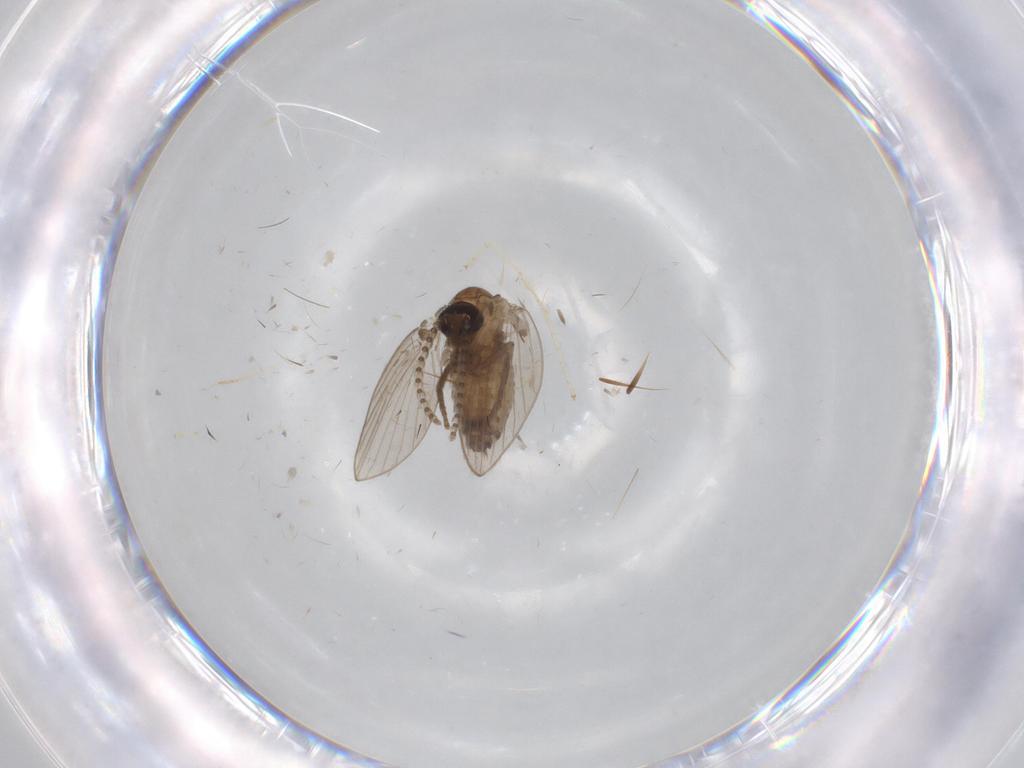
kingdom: Animalia
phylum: Arthropoda
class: Insecta
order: Diptera
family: Chironomidae
